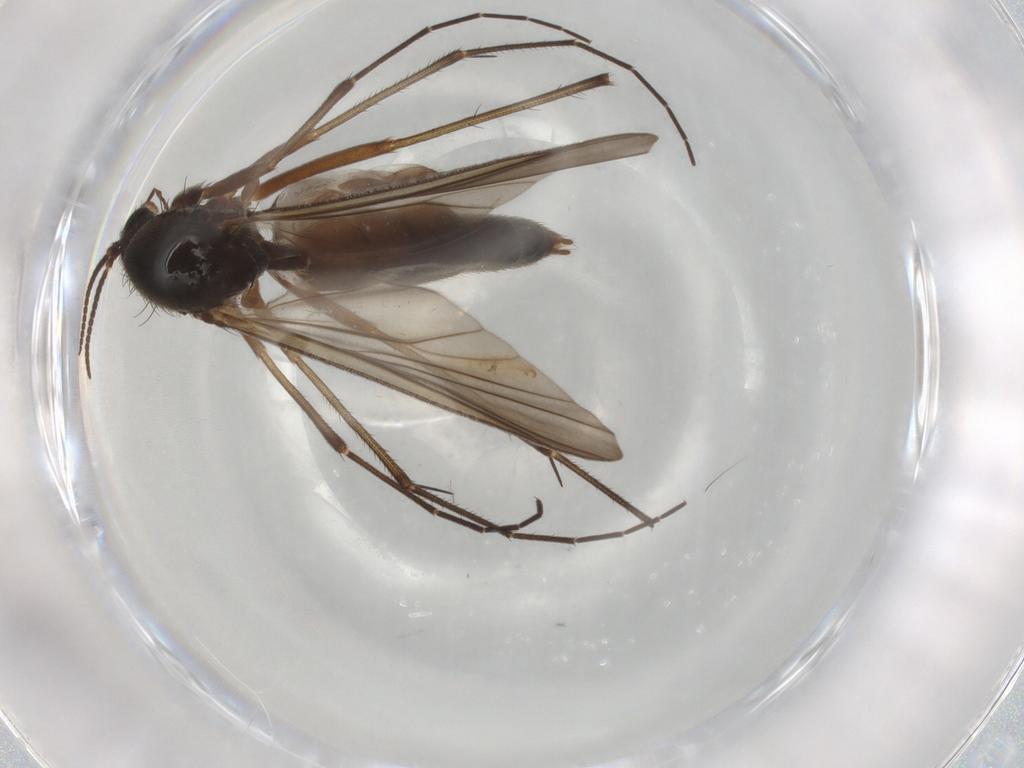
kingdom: Animalia
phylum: Arthropoda
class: Insecta
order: Diptera
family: Chironomidae
